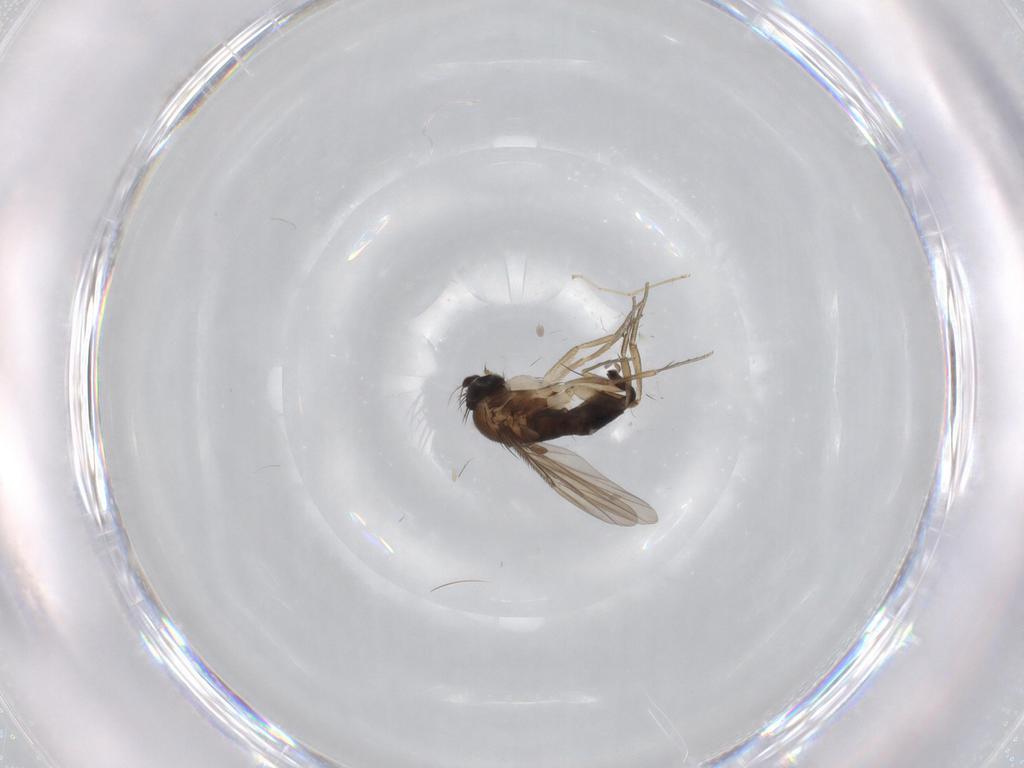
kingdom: Animalia
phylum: Arthropoda
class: Insecta
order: Diptera
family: Phoridae
